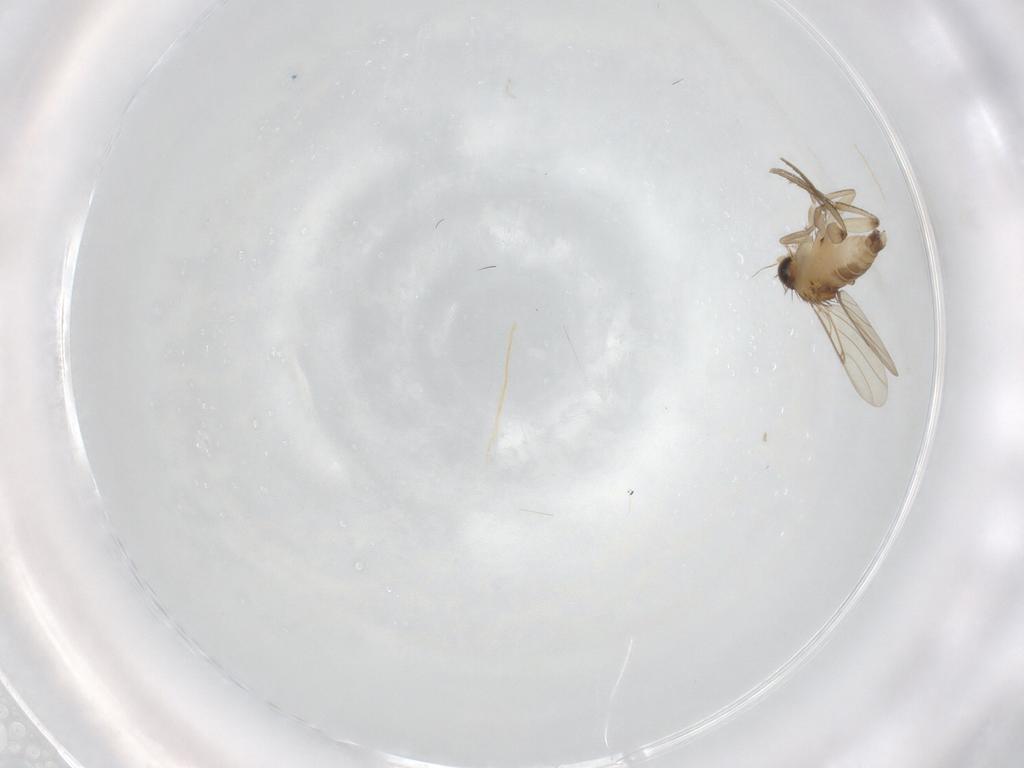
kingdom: Animalia
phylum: Arthropoda
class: Insecta
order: Diptera
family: Phoridae
